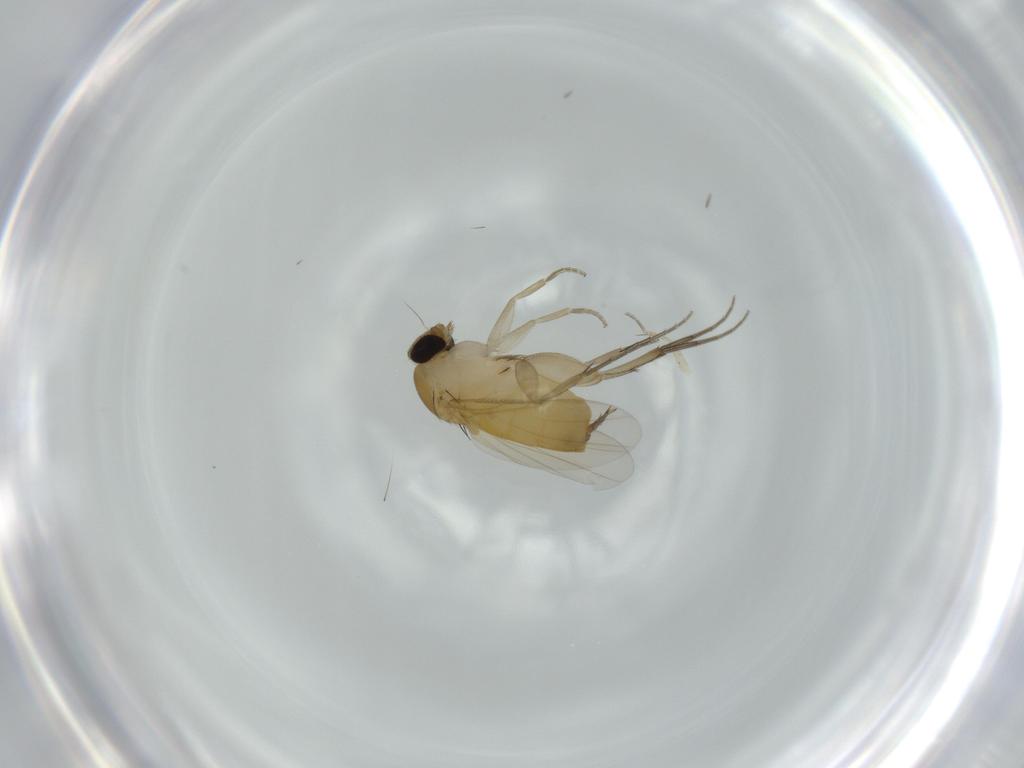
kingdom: Animalia
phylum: Arthropoda
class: Insecta
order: Diptera
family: Phoridae
